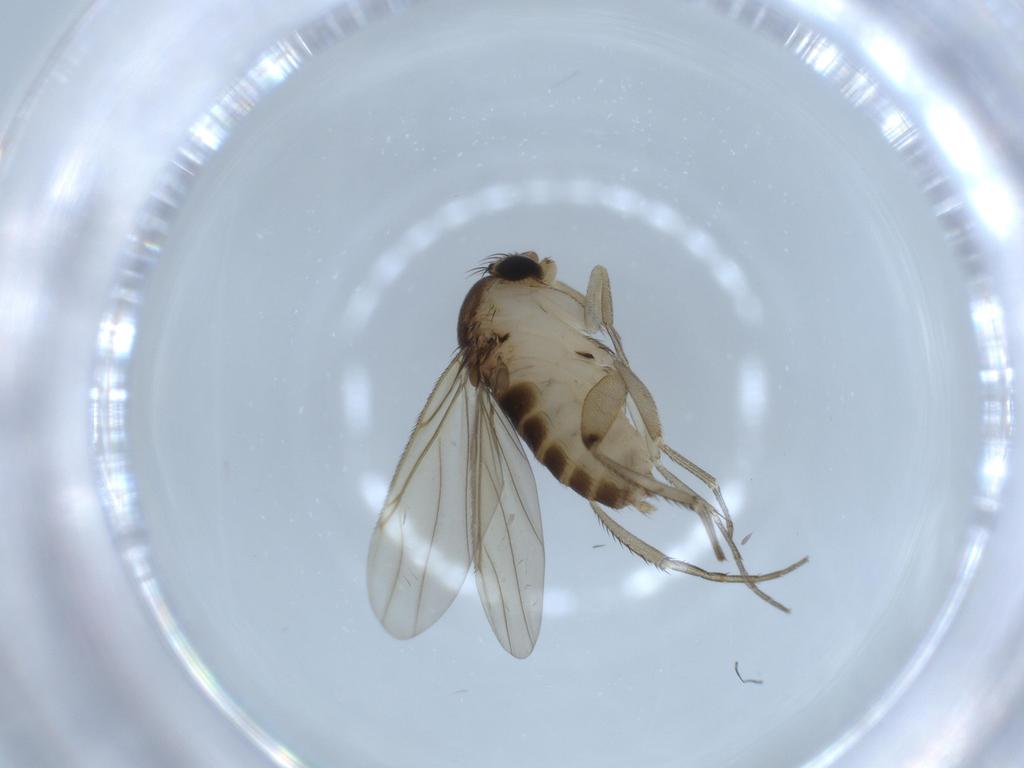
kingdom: Animalia
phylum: Arthropoda
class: Insecta
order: Diptera
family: Phoridae
